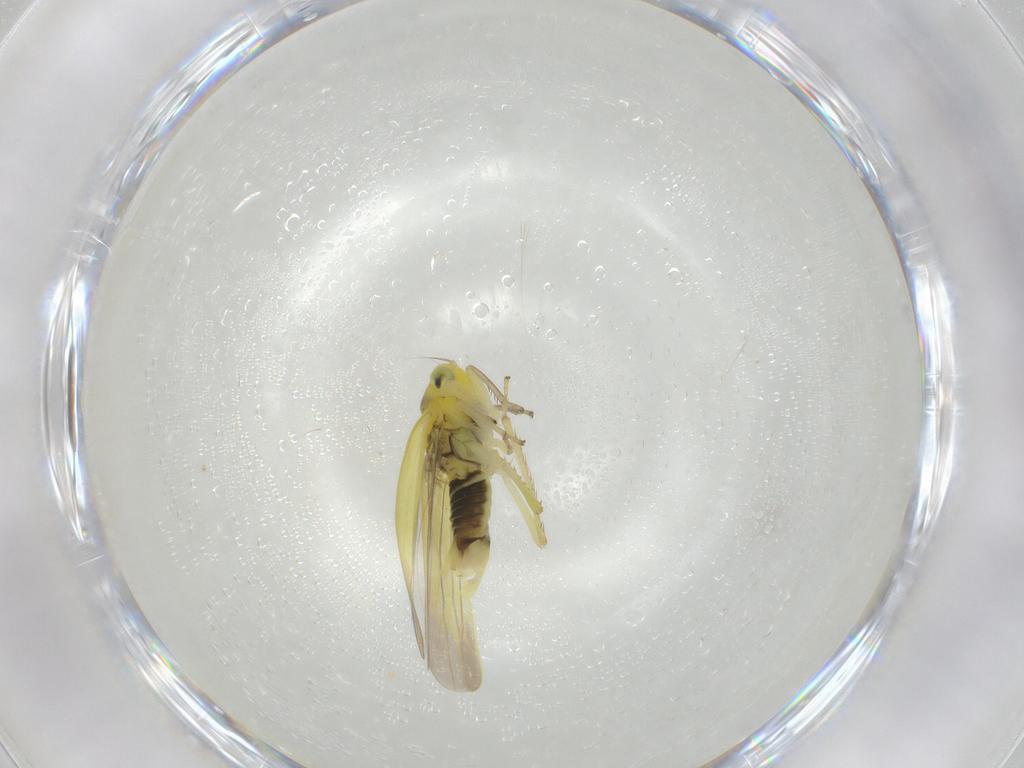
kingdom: Animalia
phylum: Arthropoda
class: Insecta
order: Hemiptera
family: Cicadellidae
